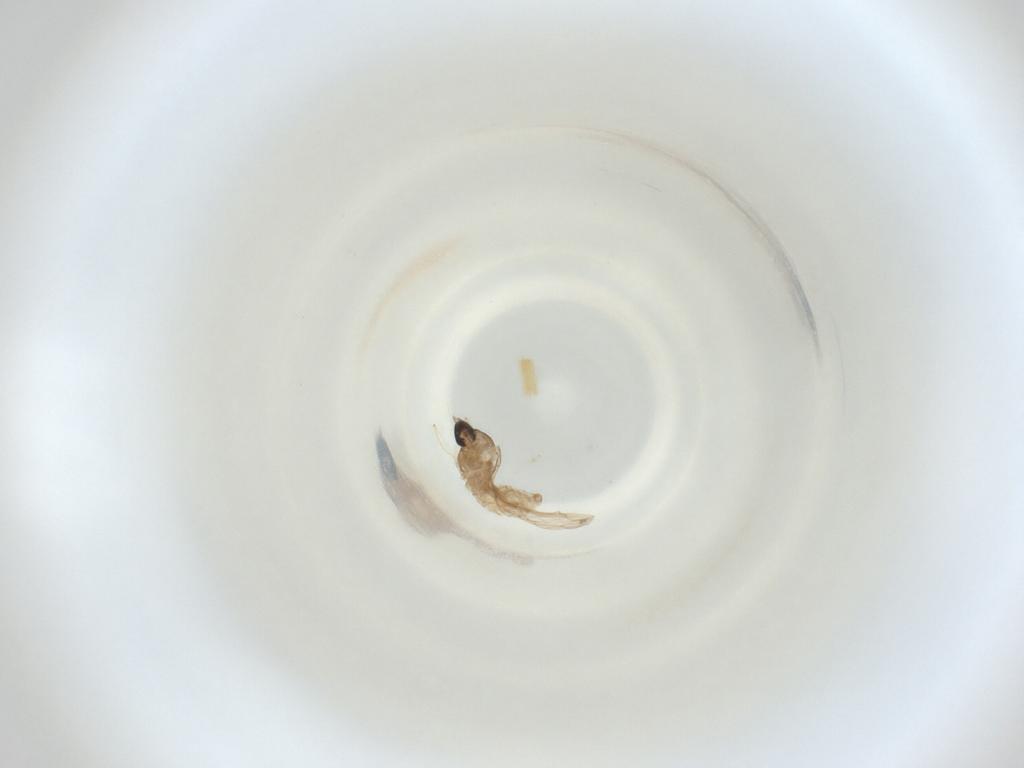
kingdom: Animalia
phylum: Arthropoda
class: Insecta
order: Diptera
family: Cecidomyiidae
